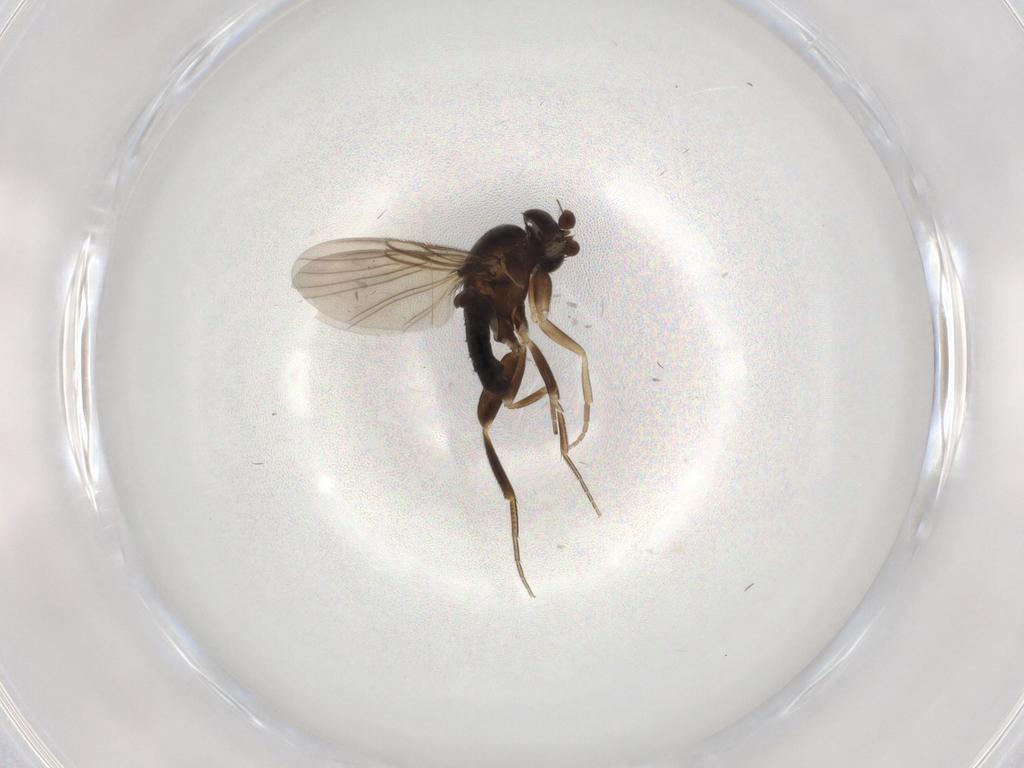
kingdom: Animalia
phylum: Arthropoda
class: Insecta
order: Diptera
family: Phoridae
